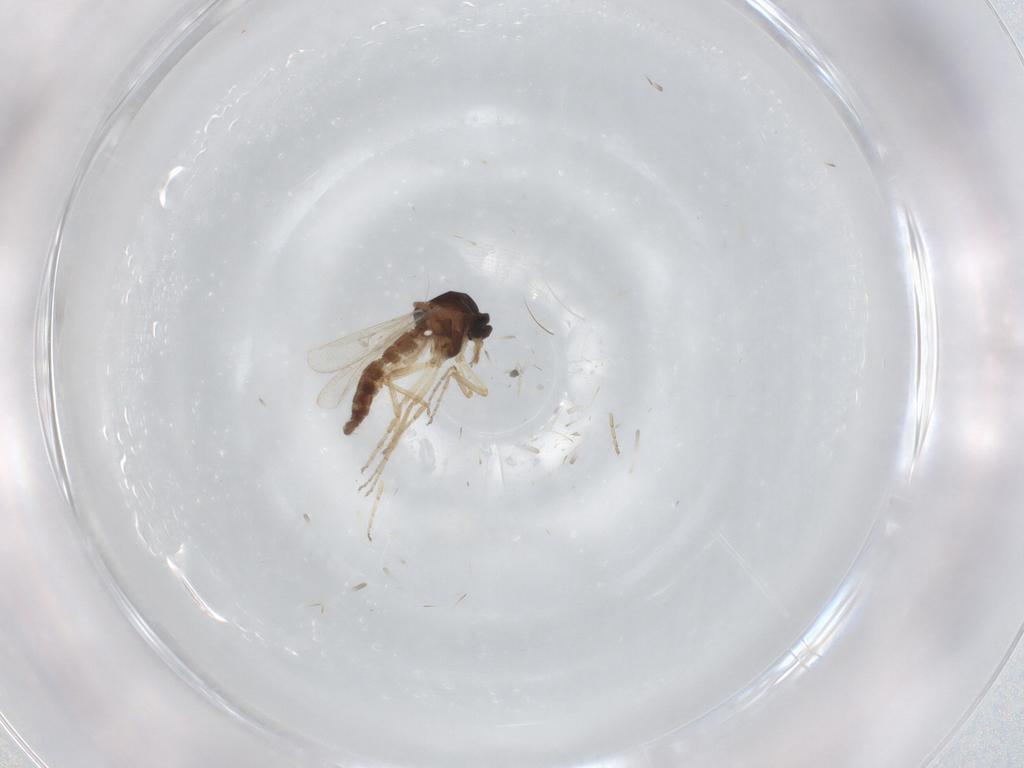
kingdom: Animalia
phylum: Arthropoda
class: Insecta
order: Diptera
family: Ceratopogonidae
